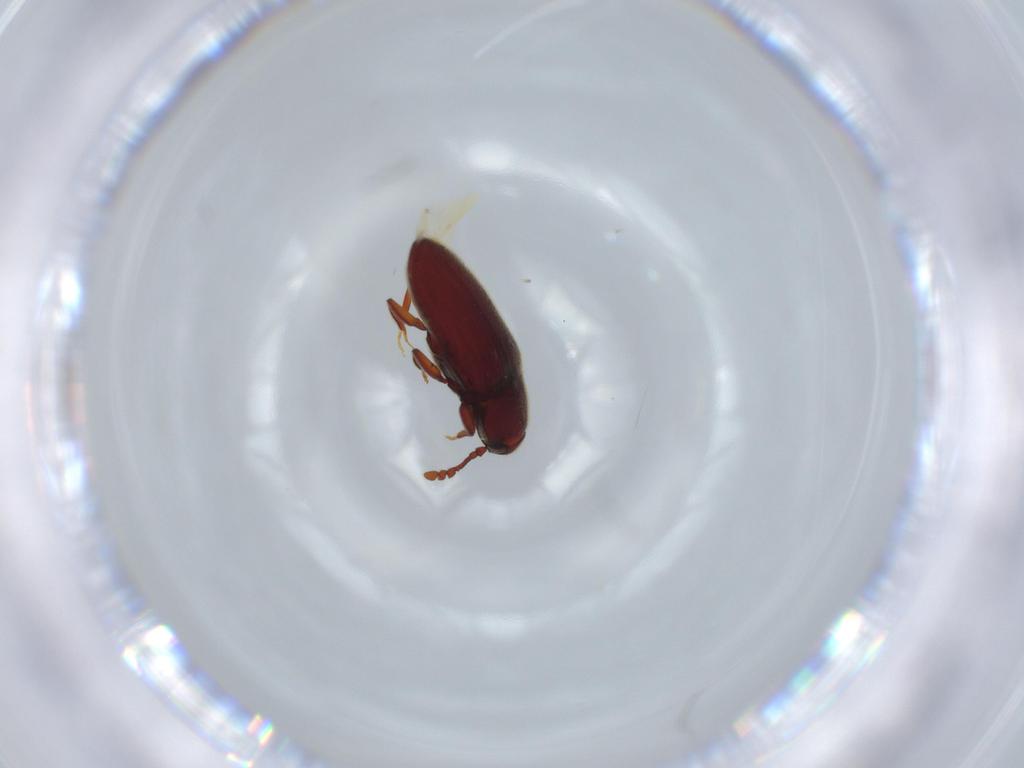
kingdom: Animalia
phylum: Arthropoda
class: Insecta
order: Coleoptera
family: Throscidae
